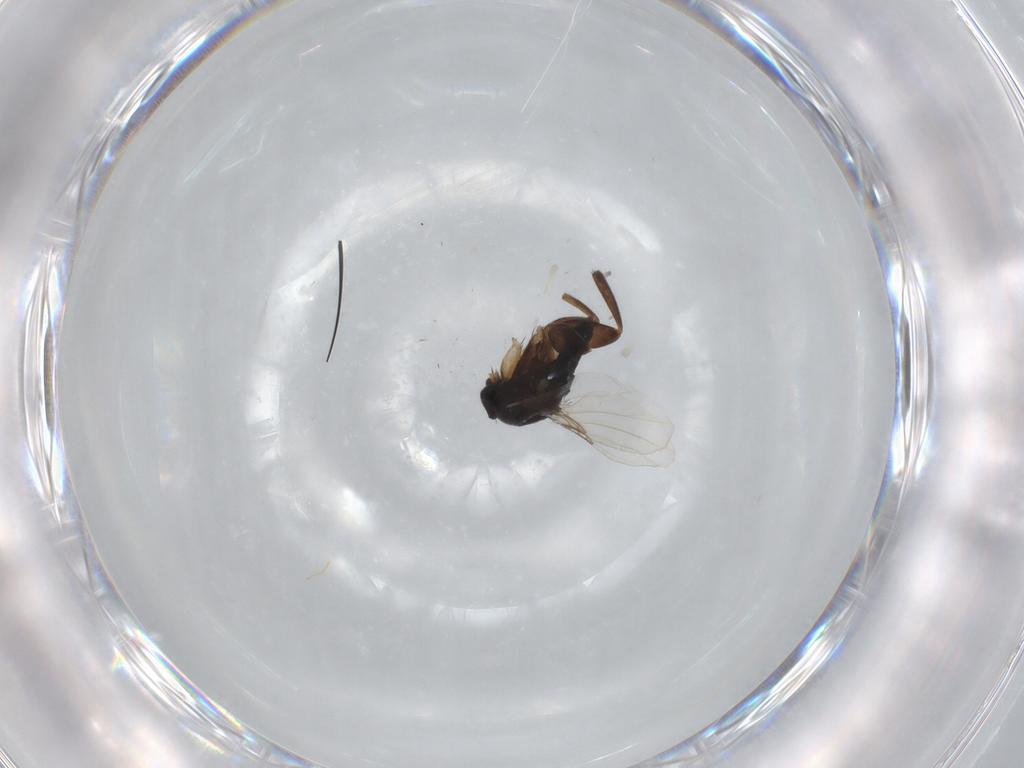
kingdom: Animalia
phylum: Arthropoda
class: Insecta
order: Diptera
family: Phoridae
